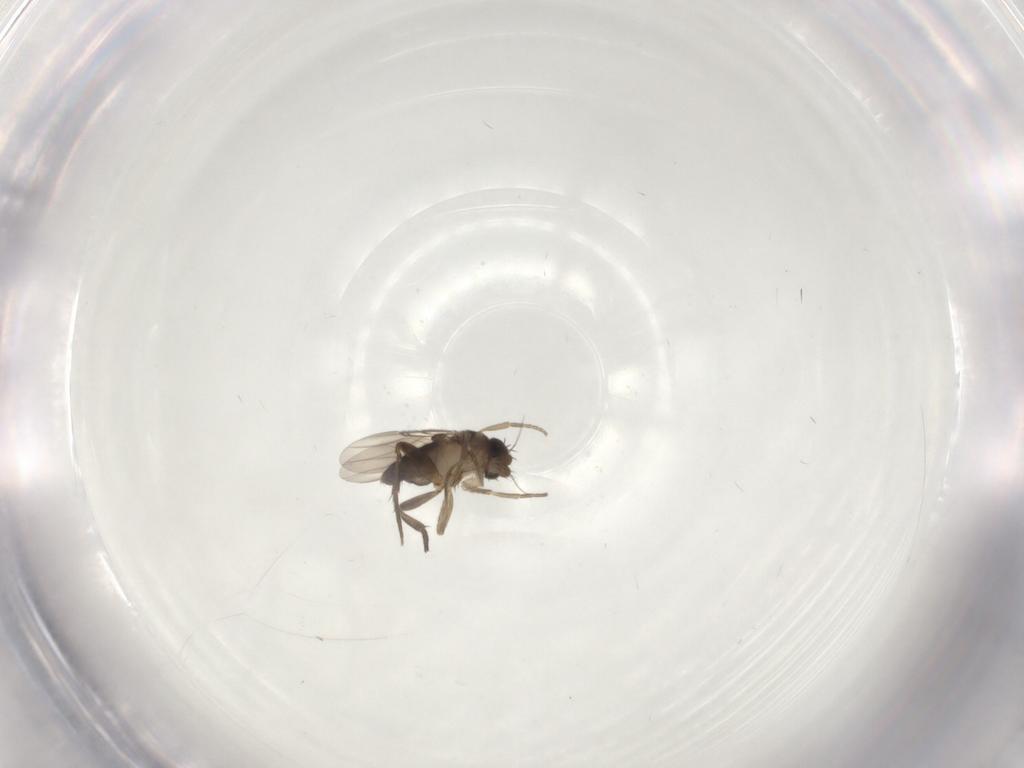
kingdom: Animalia
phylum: Arthropoda
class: Insecta
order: Diptera
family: Phoridae
